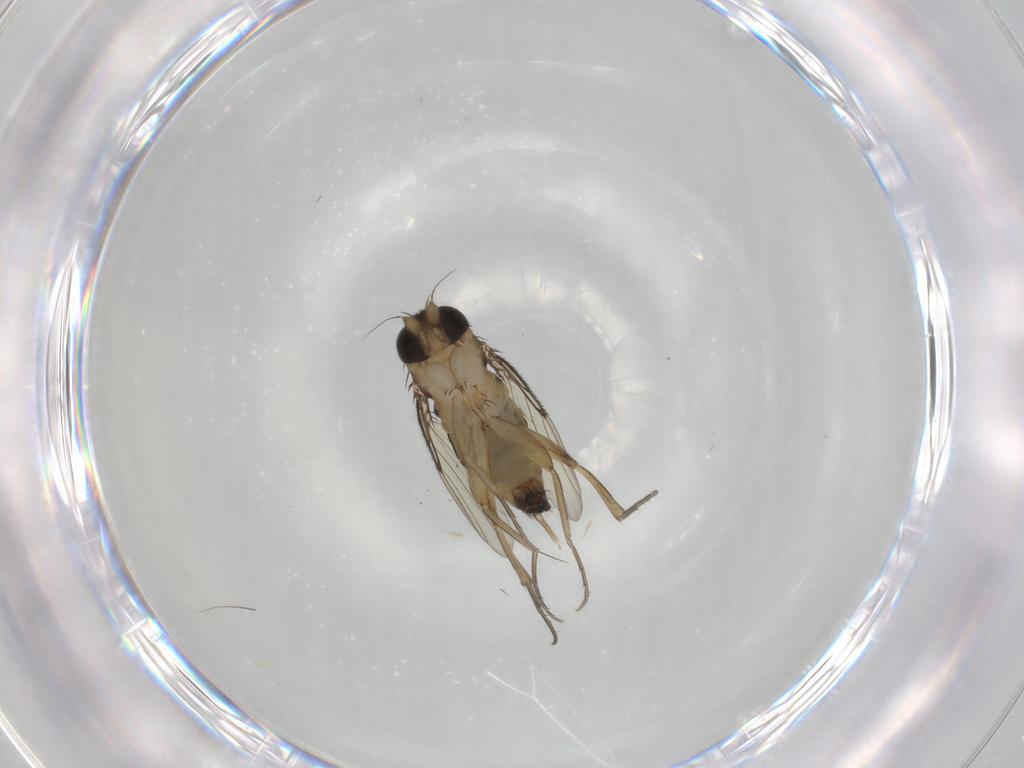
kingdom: Animalia
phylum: Arthropoda
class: Insecta
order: Diptera
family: Phoridae
